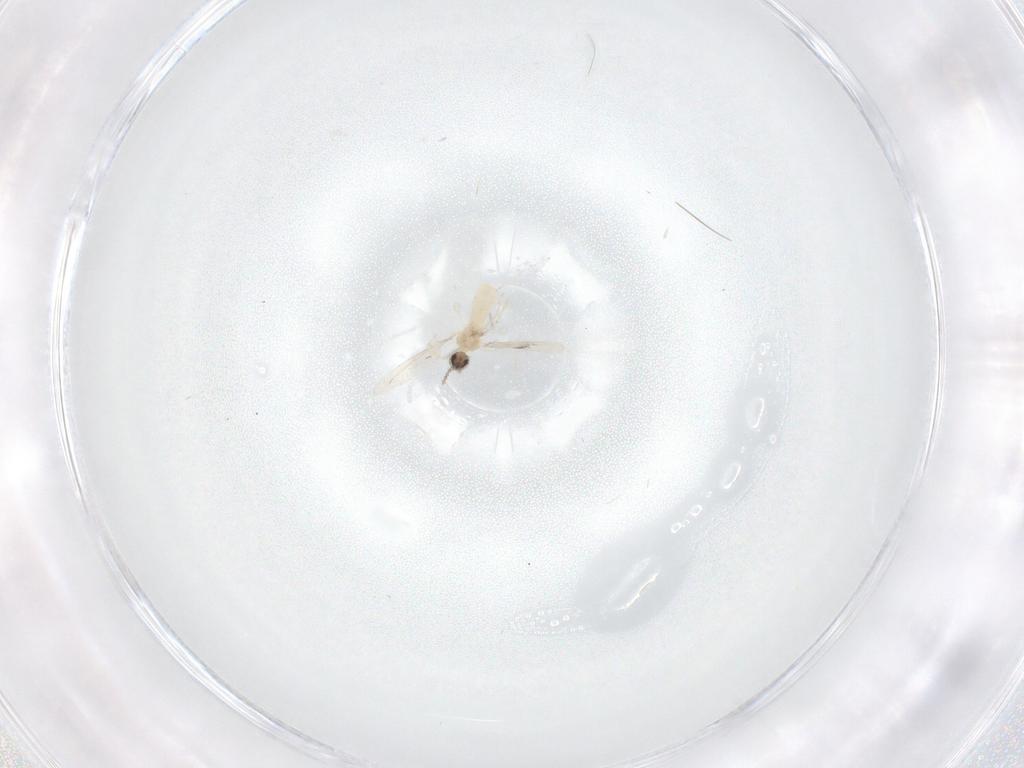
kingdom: Animalia
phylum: Arthropoda
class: Insecta
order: Diptera
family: Cecidomyiidae
